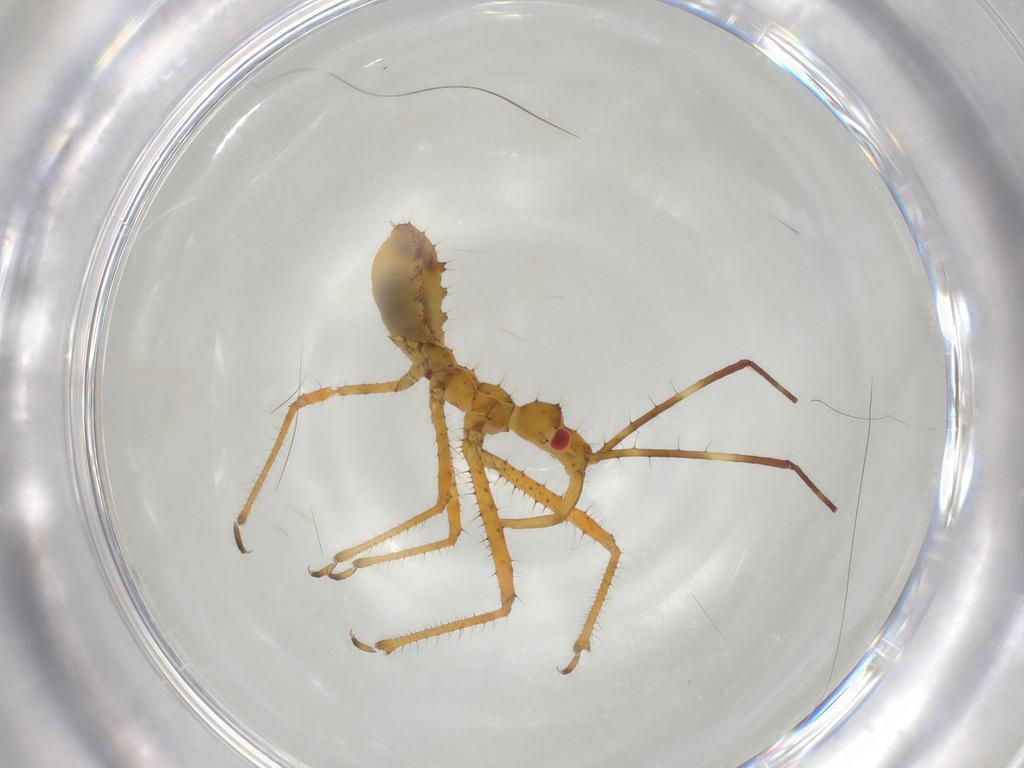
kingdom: Animalia
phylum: Arthropoda
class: Insecta
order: Hemiptera
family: Reduviidae
